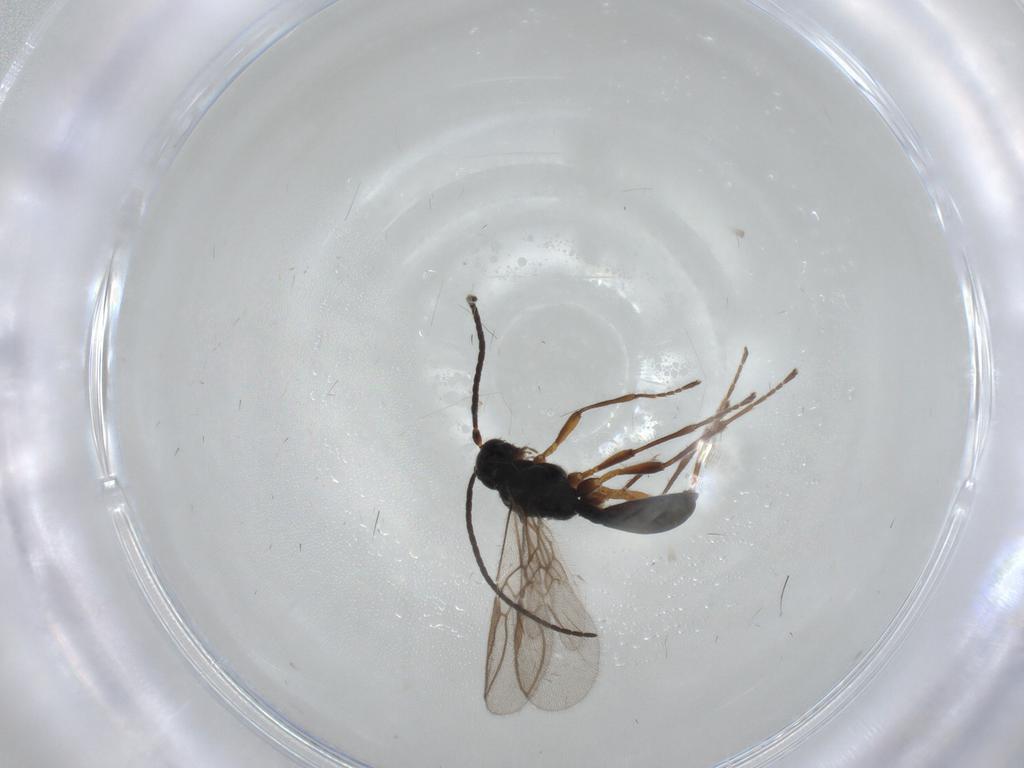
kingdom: Animalia
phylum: Arthropoda
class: Insecta
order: Hymenoptera
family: Braconidae
